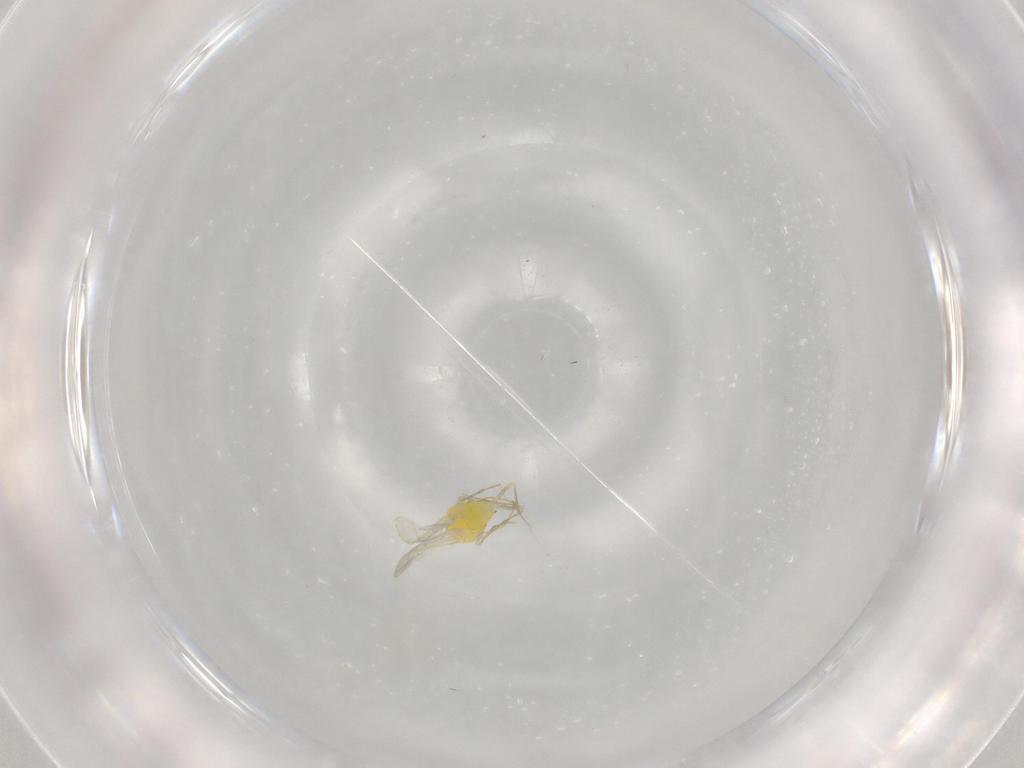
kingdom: Animalia
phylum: Arthropoda
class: Insecta
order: Hemiptera
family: Aleyrodidae
